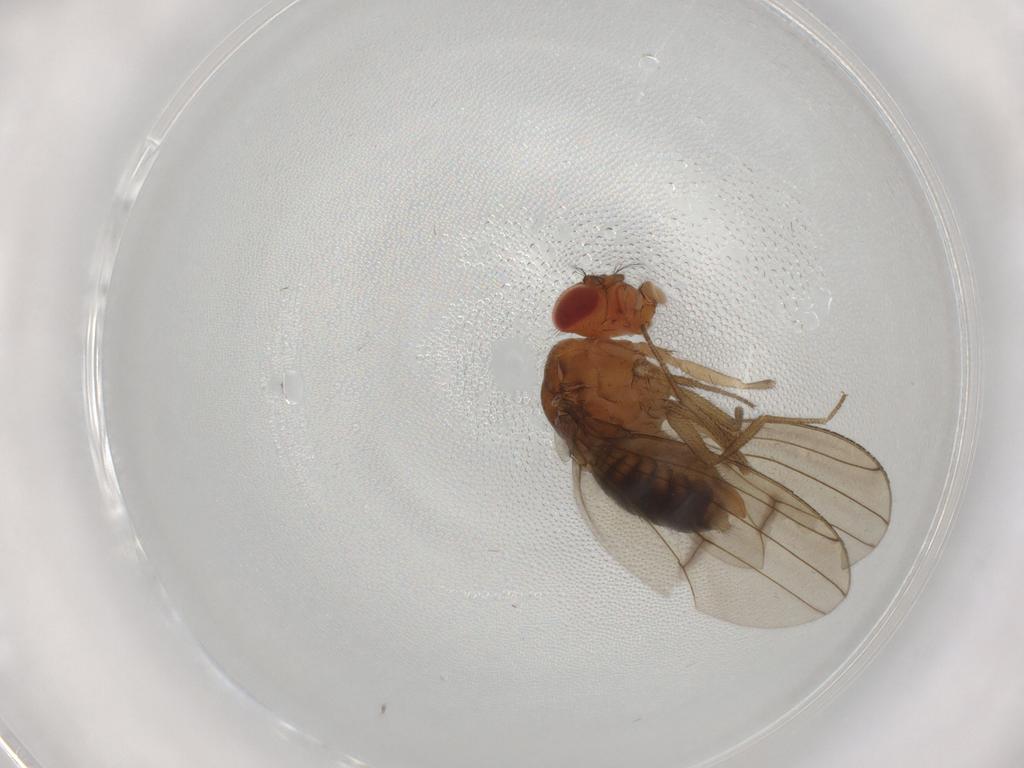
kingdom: Animalia
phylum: Arthropoda
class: Insecta
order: Diptera
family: Drosophilidae
